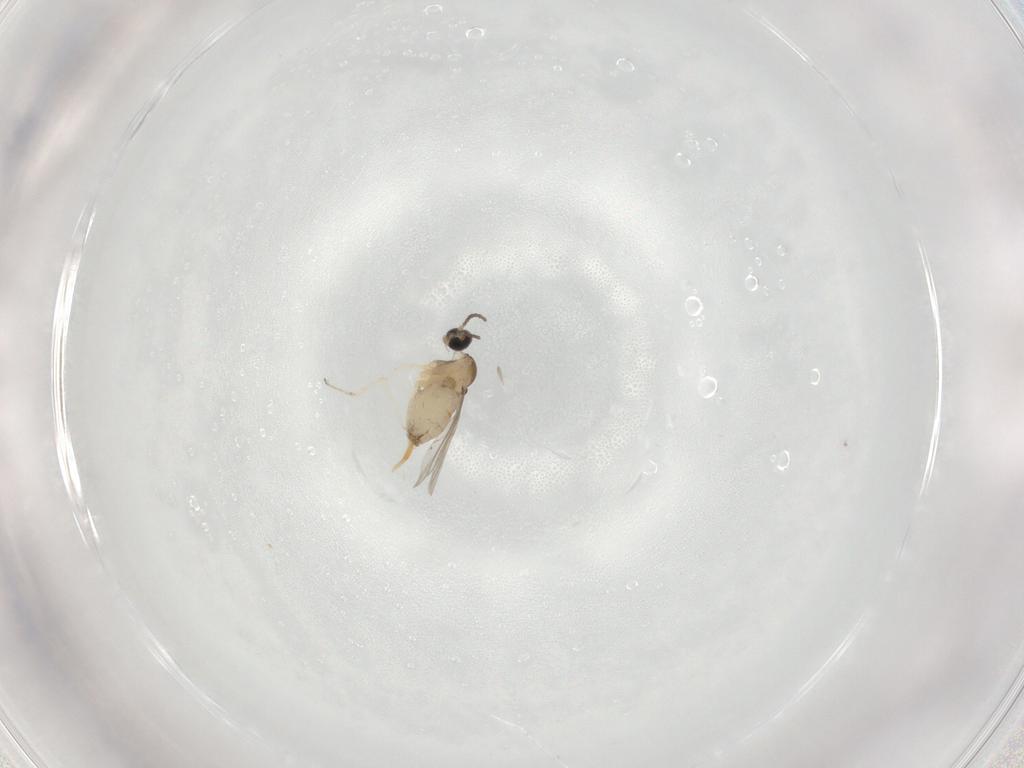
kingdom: Animalia
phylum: Arthropoda
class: Insecta
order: Diptera
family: Cecidomyiidae
